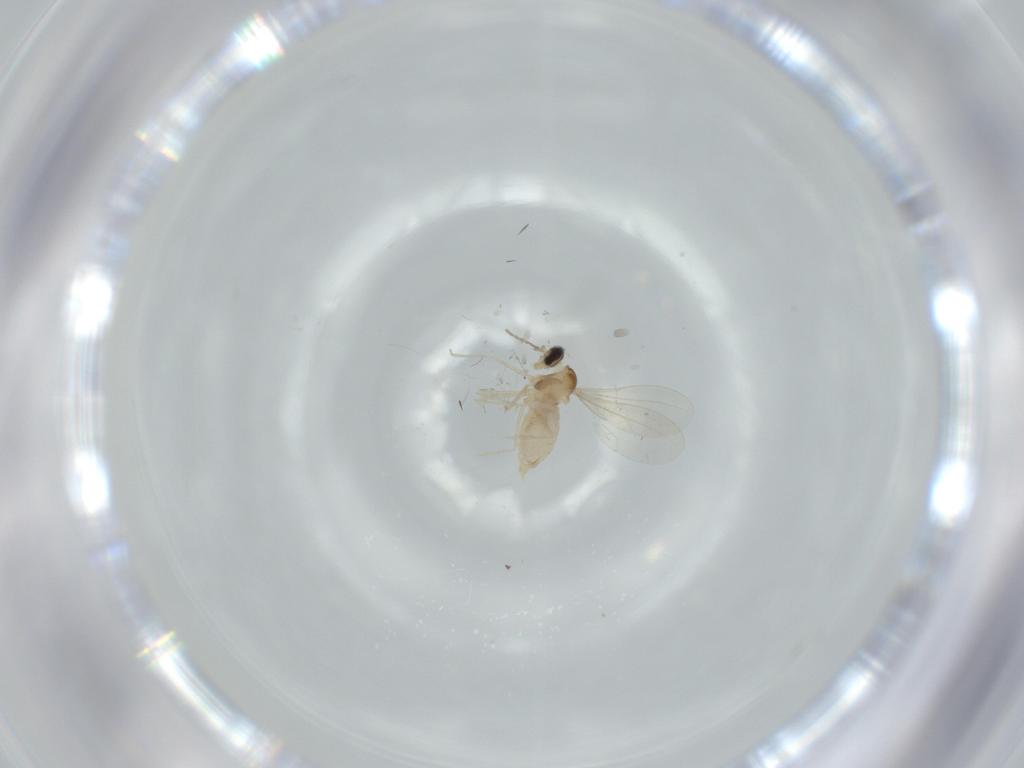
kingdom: Animalia
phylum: Arthropoda
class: Insecta
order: Diptera
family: Cecidomyiidae
